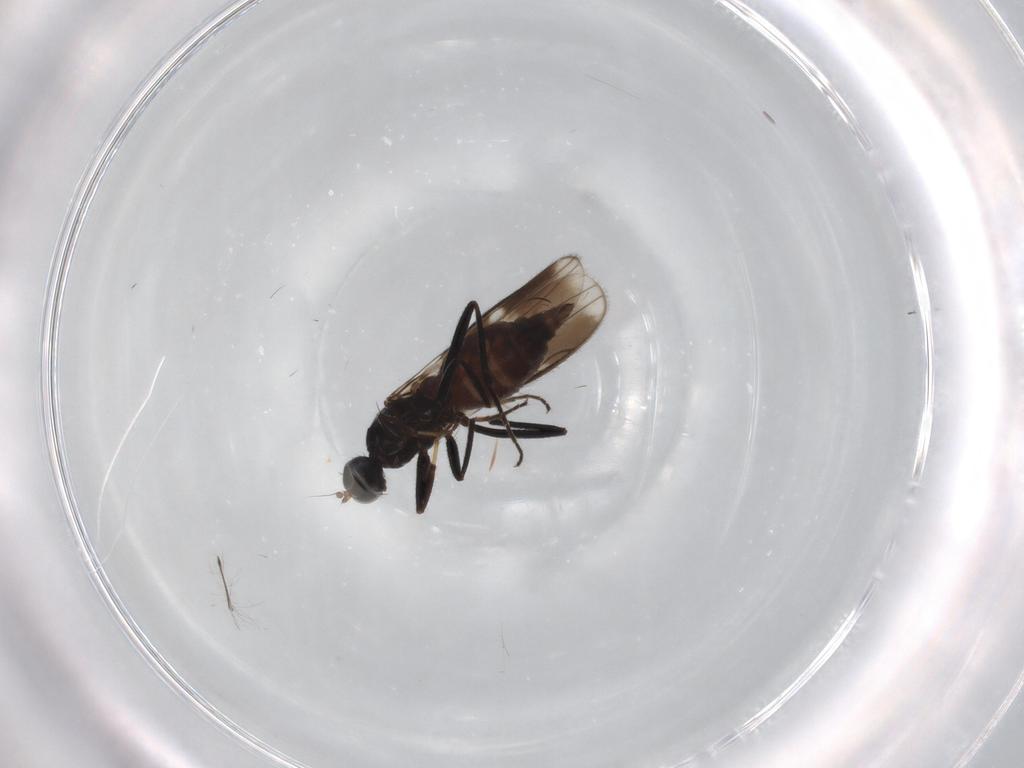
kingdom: Animalia
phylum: Arthropoda
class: Insecta
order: Diptera
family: Hybotidae
